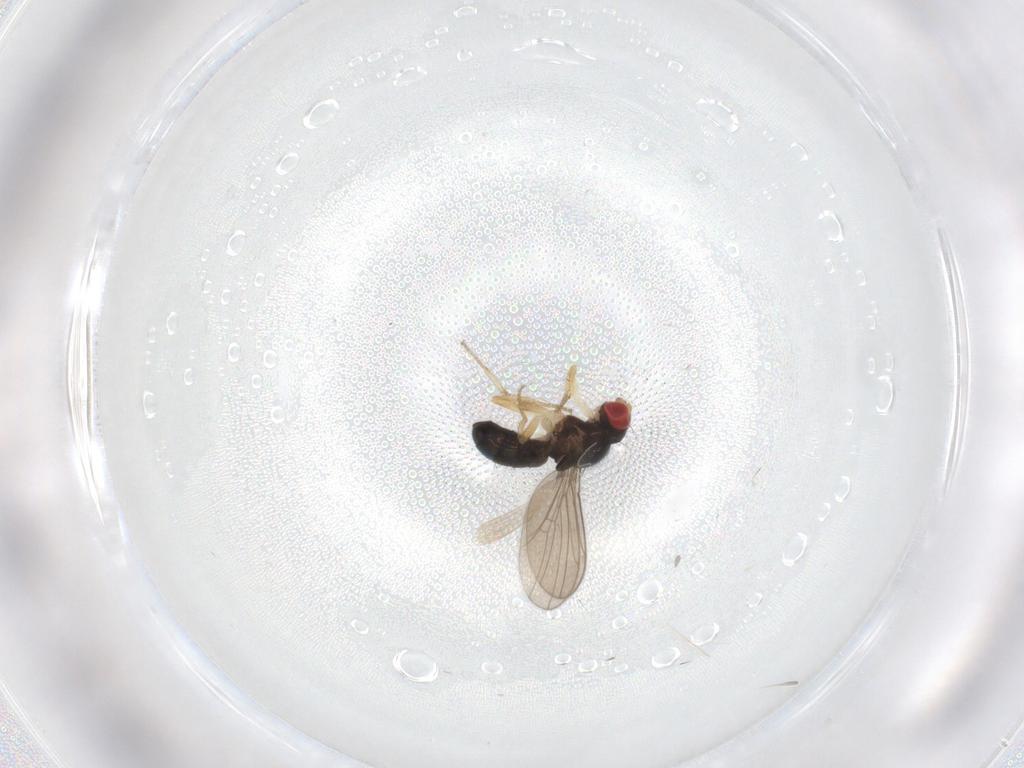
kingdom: Animalia
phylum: Arthropoda
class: Insecta
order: Diptera
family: Drosophilidae
